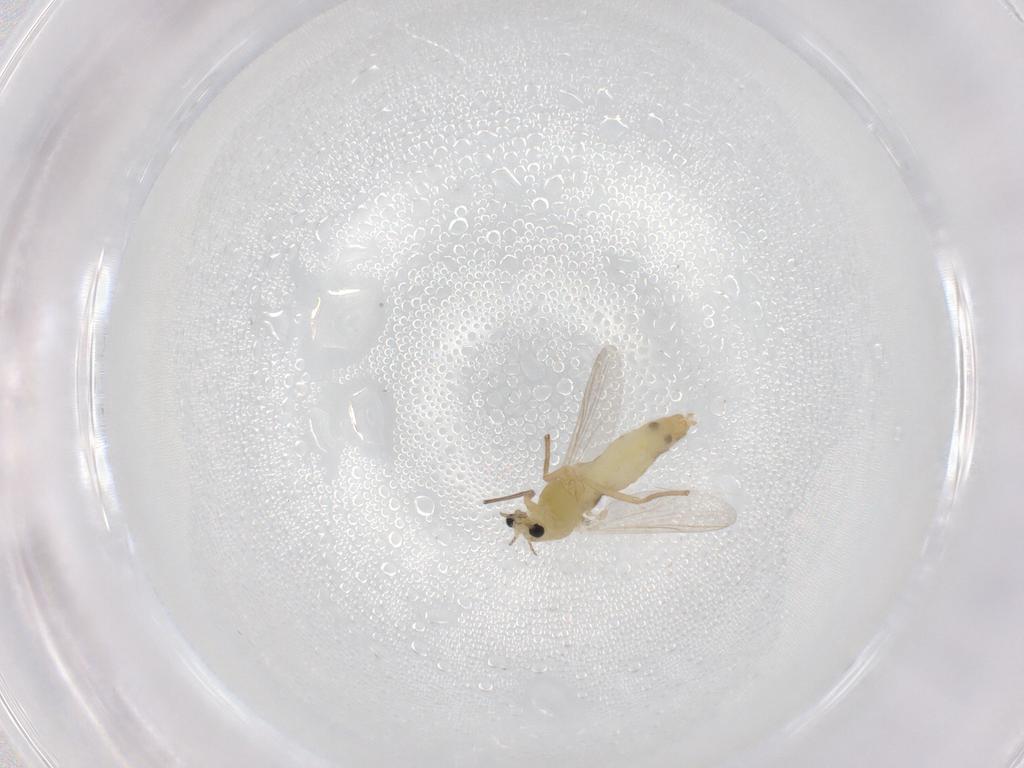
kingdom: Animalia
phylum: Arthropoda
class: Insecta
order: Diptera
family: Chironomidae
